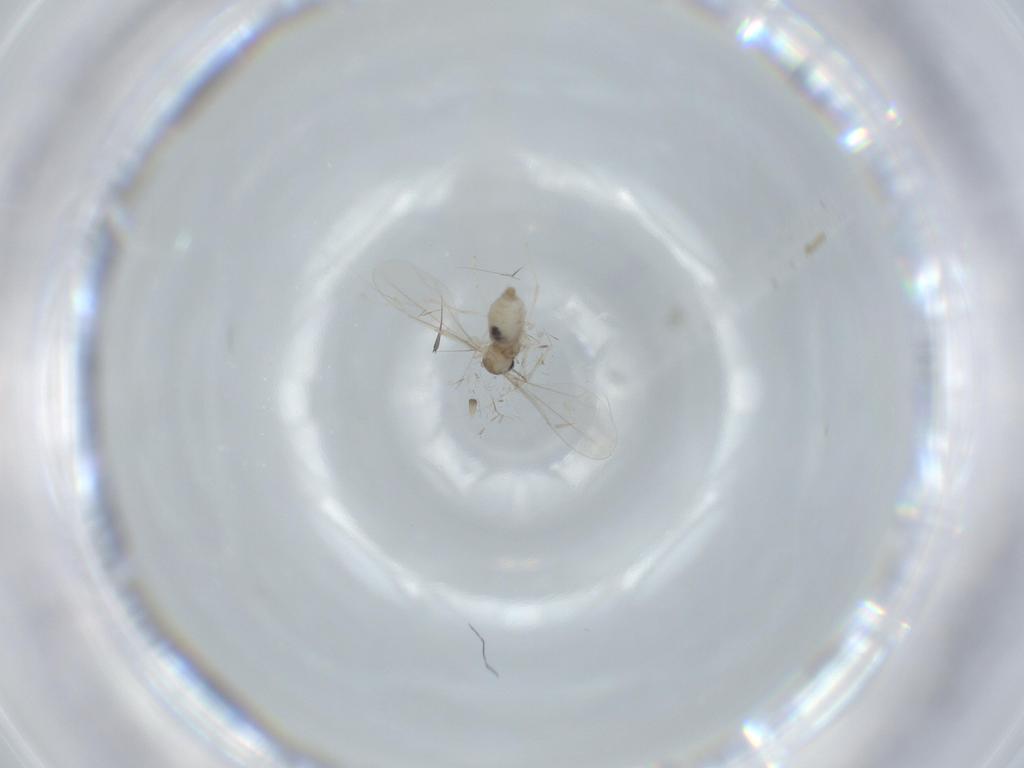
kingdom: Animalia
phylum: Arthropoda
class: Insecta
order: Diptera
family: Cecidomyiidae
